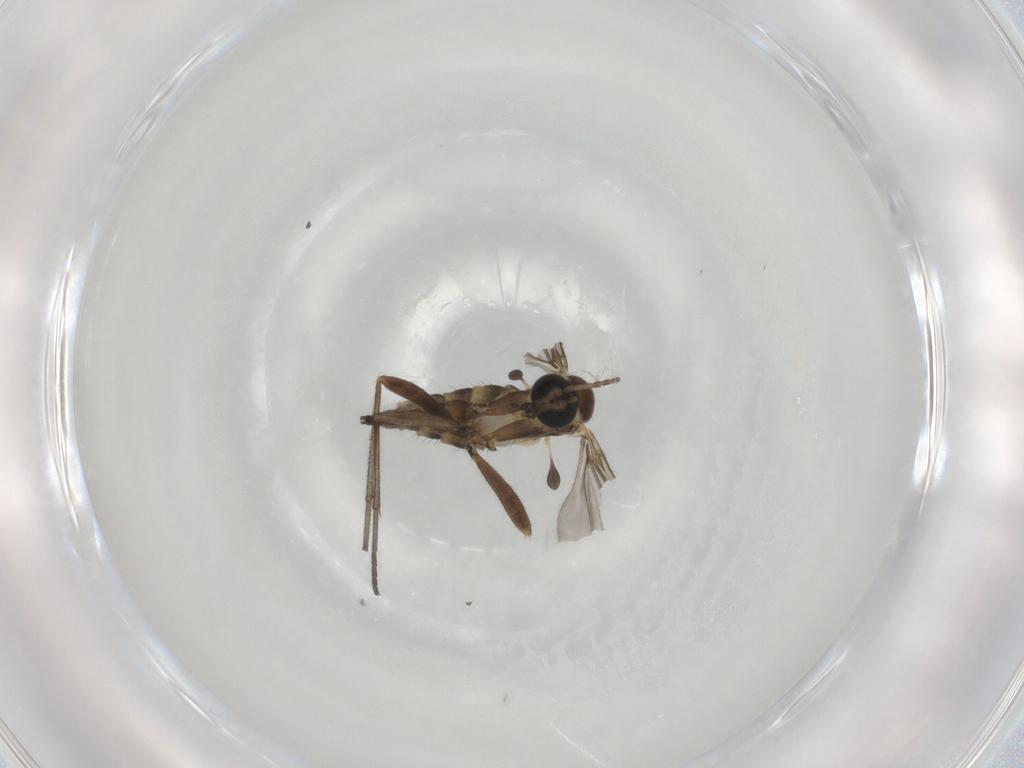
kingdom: Animalia
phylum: Arthropoda
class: Insecta
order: Diptera
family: Sciaridae
